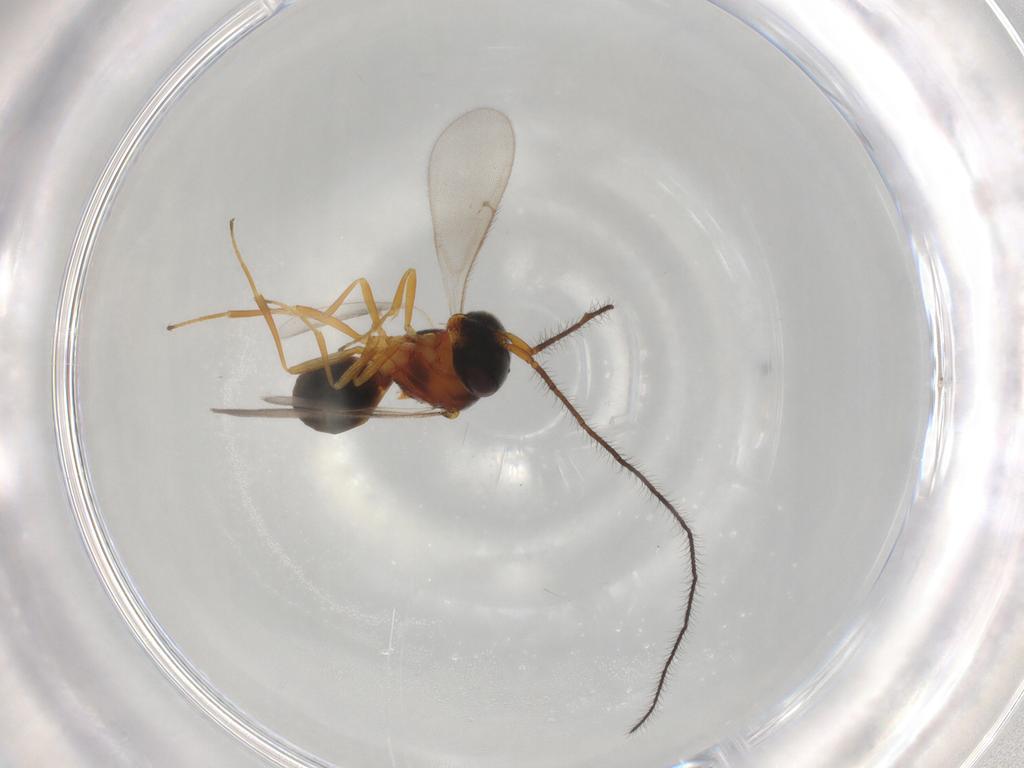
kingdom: Animalia
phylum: Arthropoda
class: Insecta
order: Hymenoptera
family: Scelionidae
